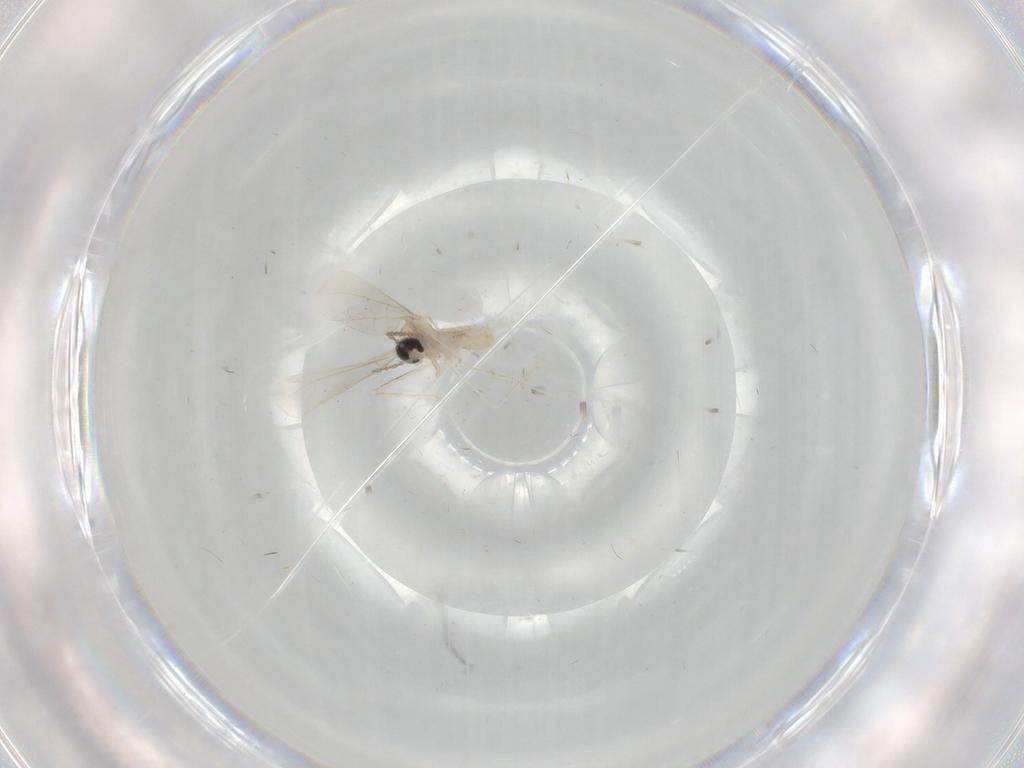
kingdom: Animalia
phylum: Arthropoda
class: Insecta
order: Diptera
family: Cecidomyiidae
